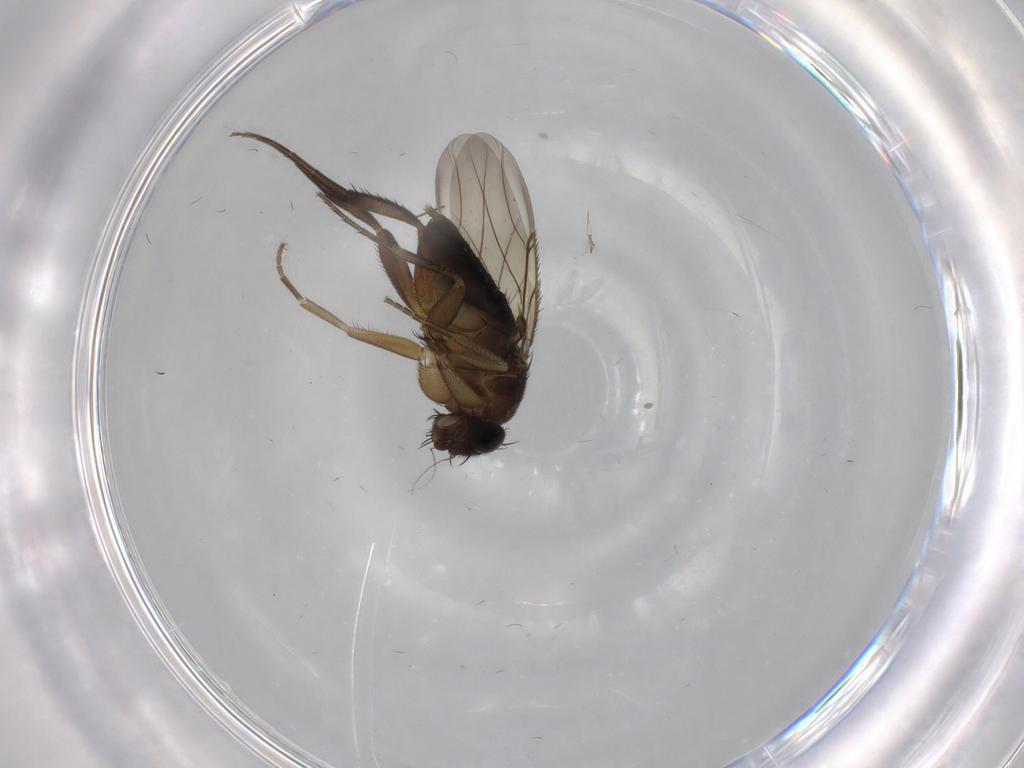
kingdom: Animalia
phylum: Arthropoda
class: Insecta
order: Diptera
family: Phoridae
